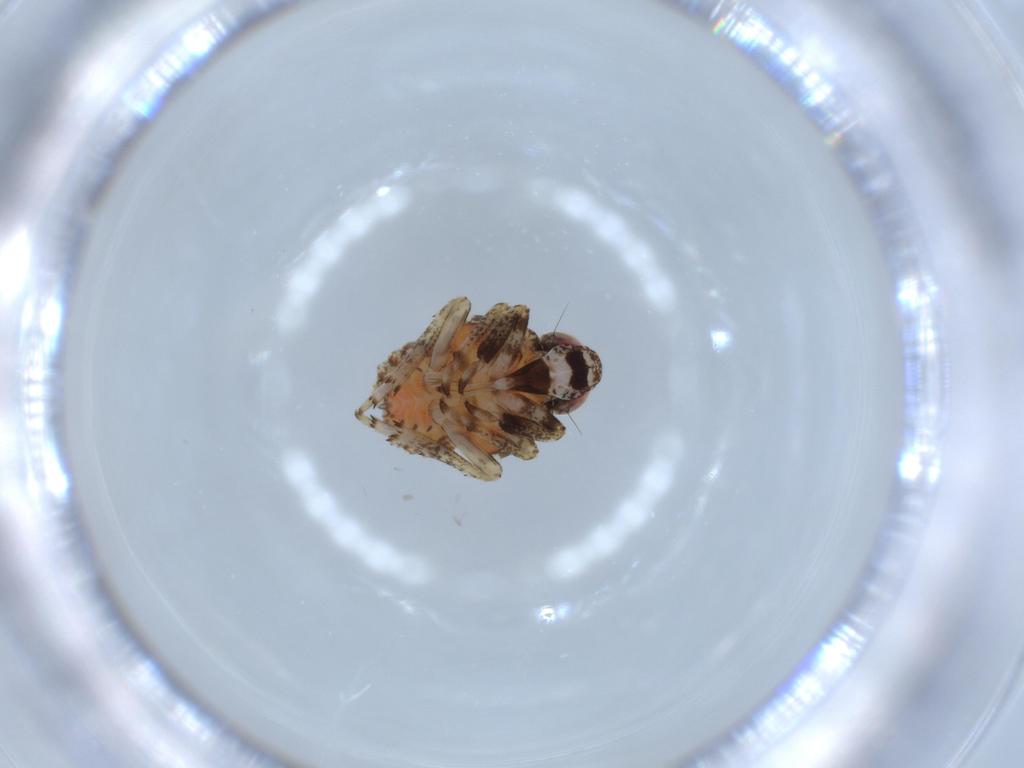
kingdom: Animalia
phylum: Arthropoda
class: Insecta
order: Hemiptera
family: Issidae
